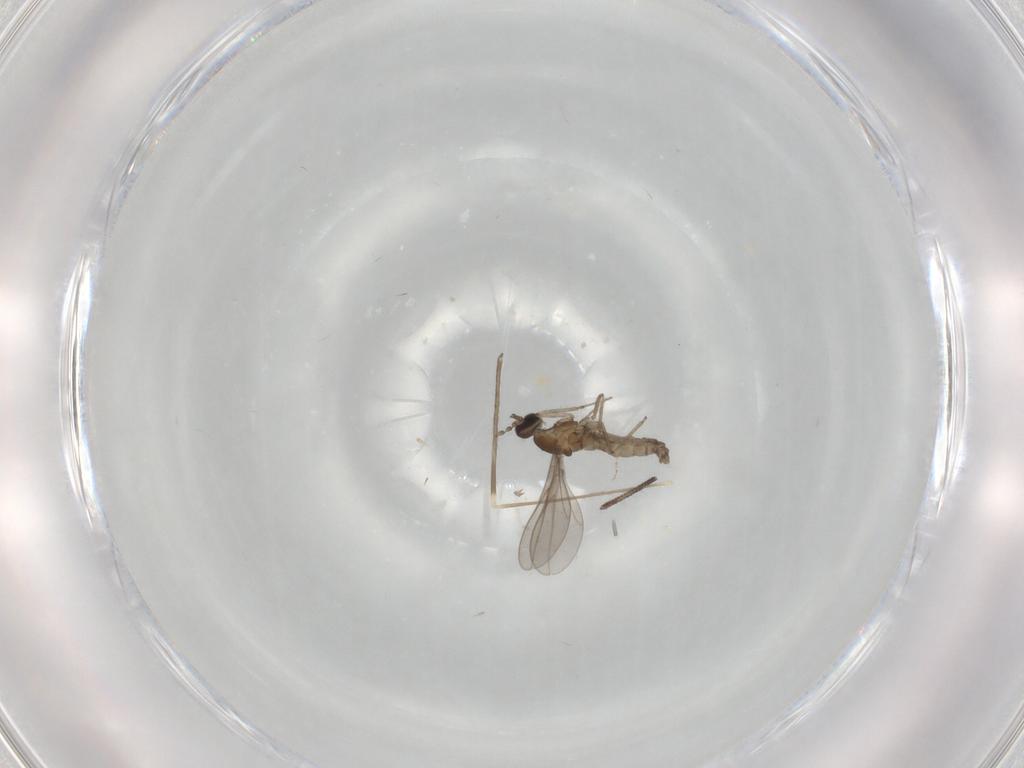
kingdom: Animalia
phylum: Arthropoda
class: Insecta
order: Diptera
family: Cecidomyiidae
